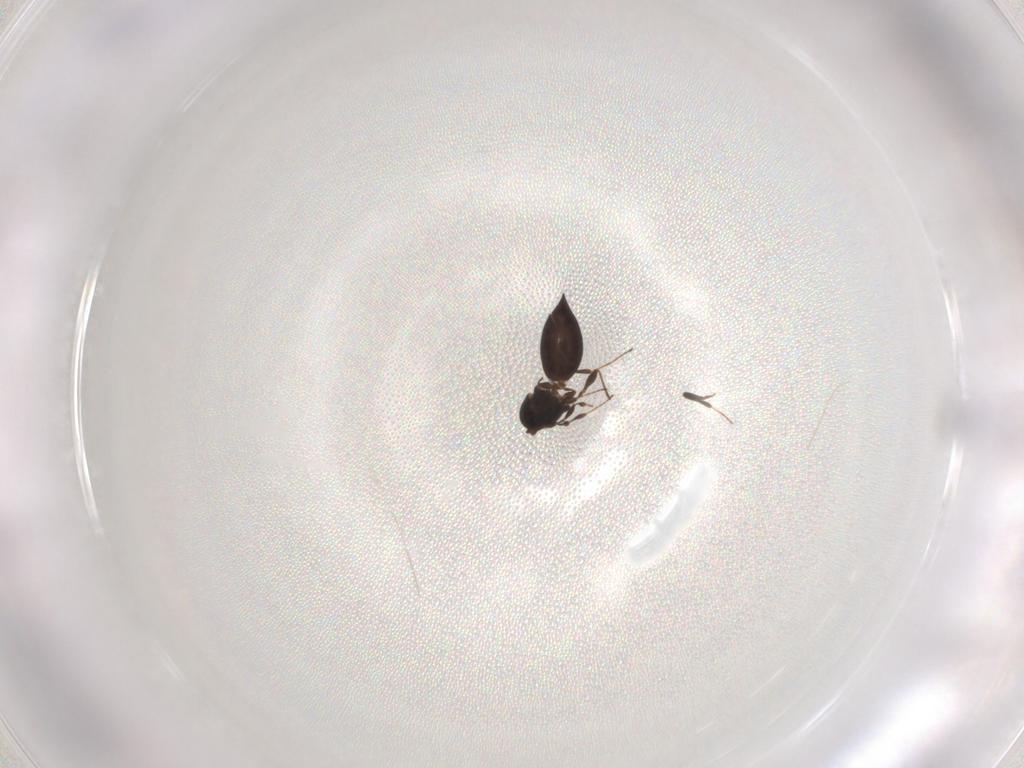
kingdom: Animalia
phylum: Arthropoda
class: Insecta
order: Hymenoptera
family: Platygastridae
